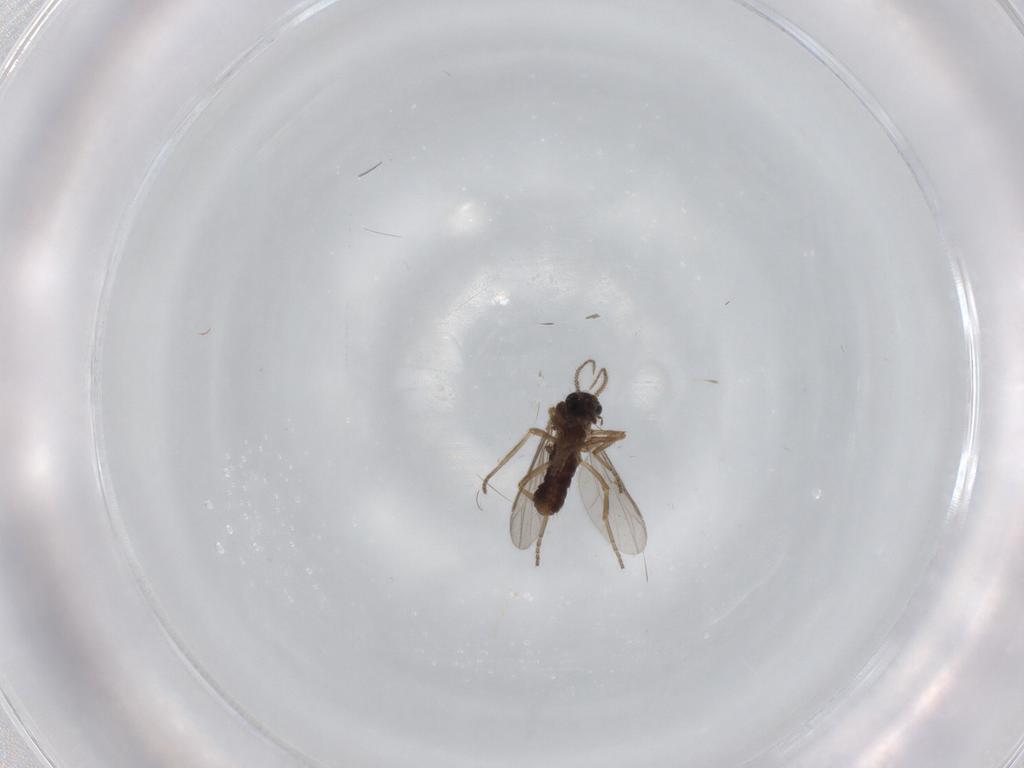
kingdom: Animalia
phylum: Arthropoda
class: Insecta
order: Diptera
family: Ceratopogonidae
